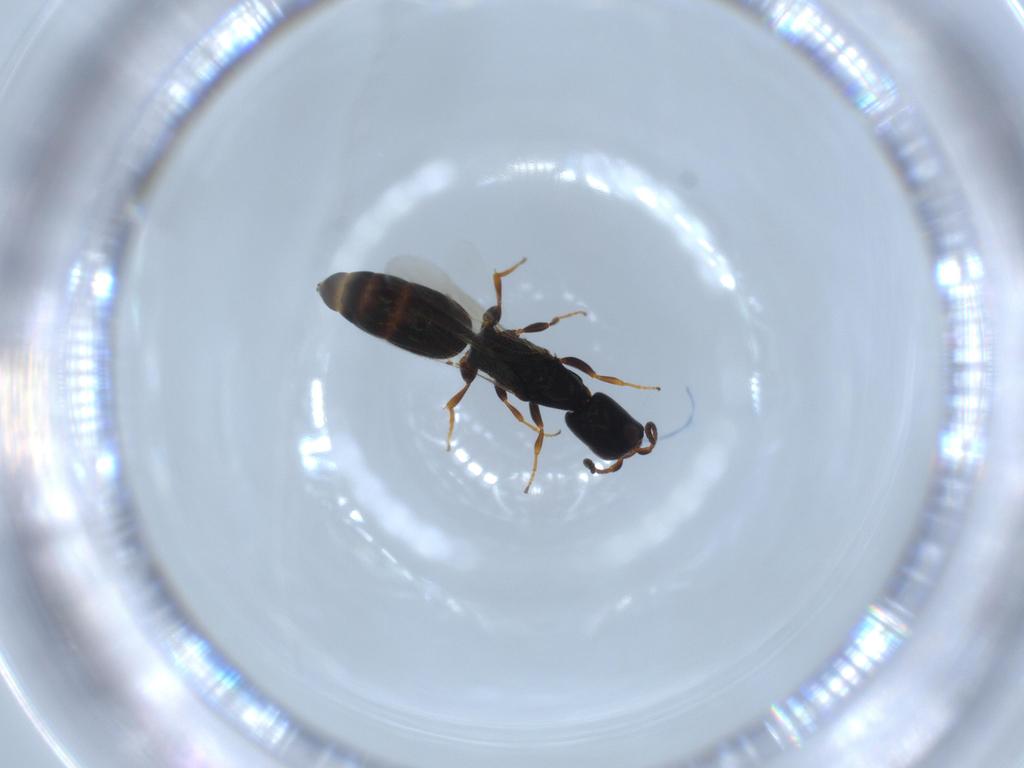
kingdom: Animalia
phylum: Arthropoda
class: Insecta
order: Hymenoptera
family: Formicidae
